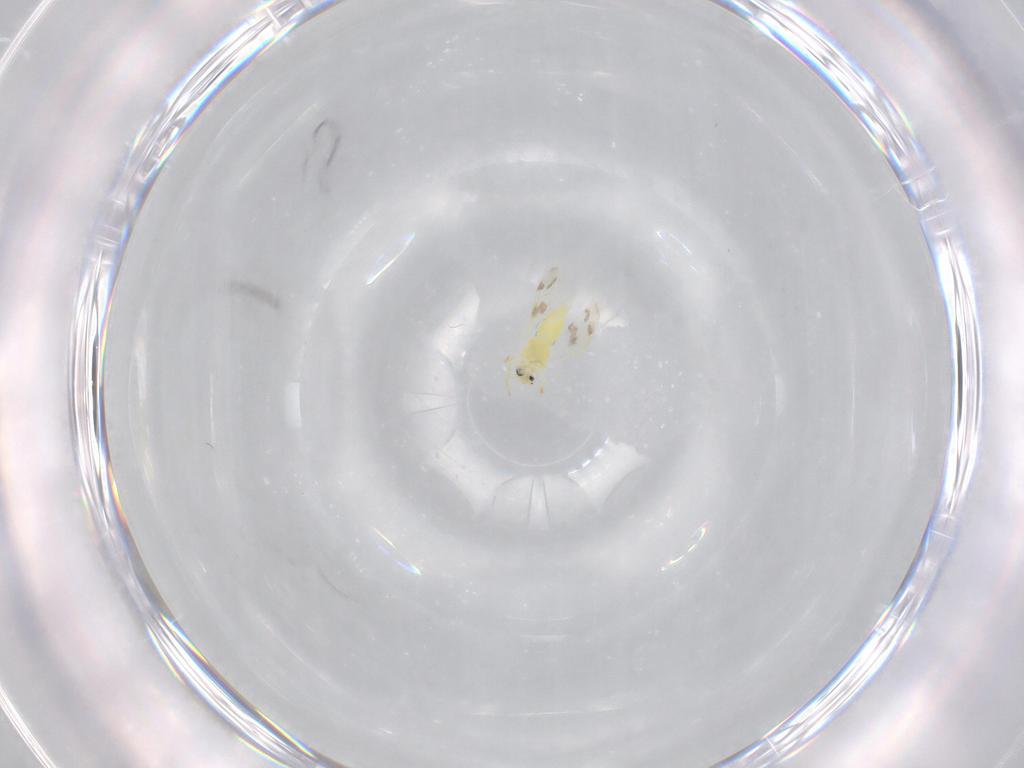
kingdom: Animalia
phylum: Arthropoda
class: Insecta
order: Hemiptera
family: Aleyrodidae
